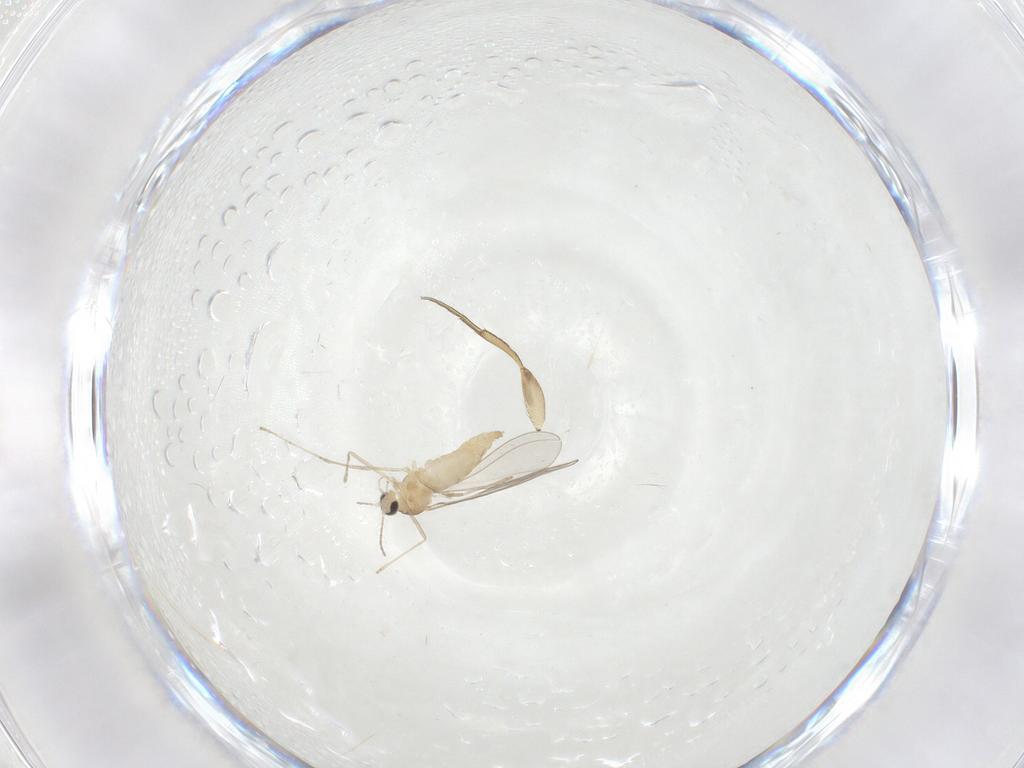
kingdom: Animalia
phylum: Arthropoda
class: Insecta
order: Diptera
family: Cecidomyiidae
